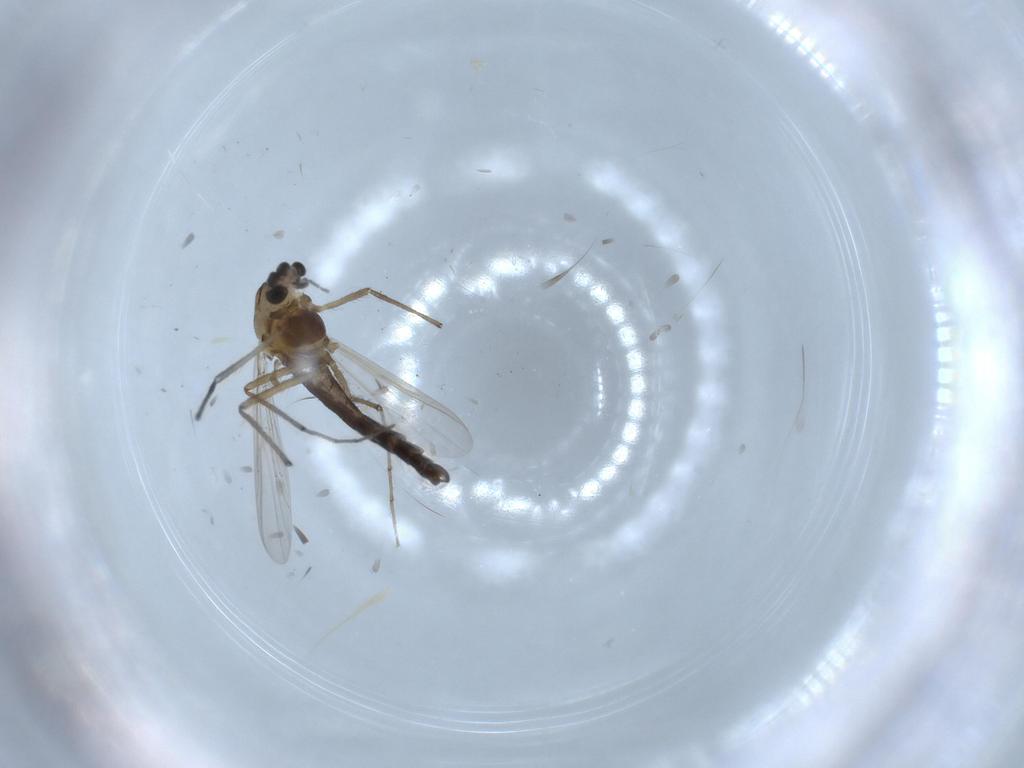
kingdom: Animalia
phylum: Arthropoda
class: Insecta
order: Diptera
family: Chironomidae
